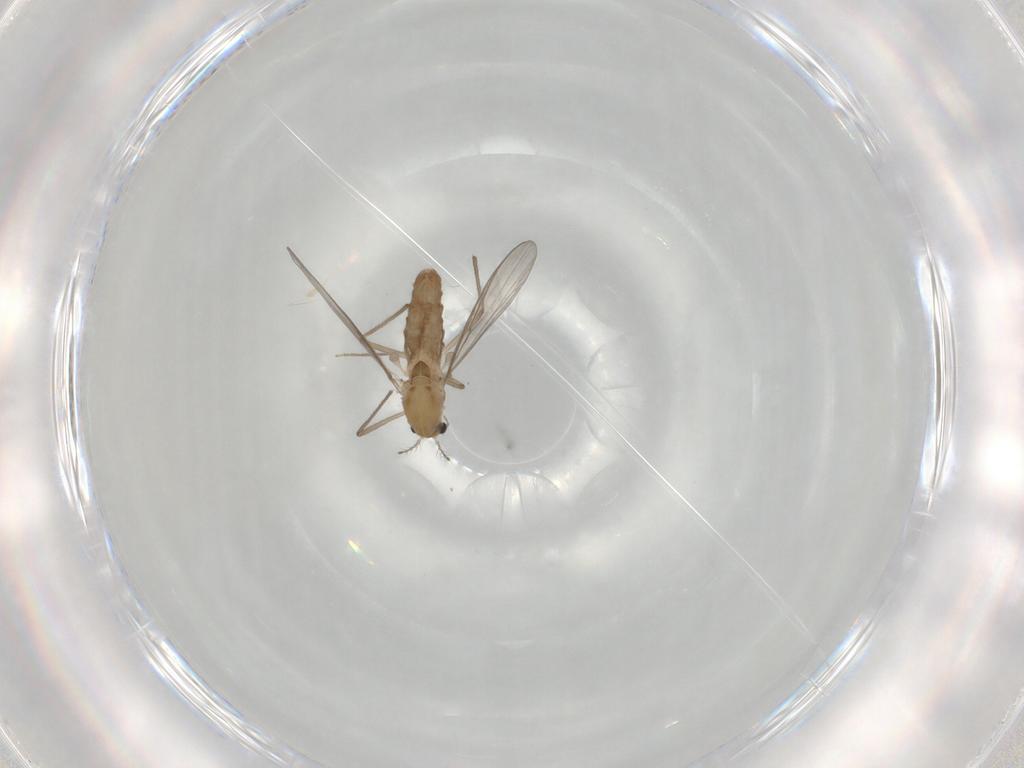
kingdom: Animalia
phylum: Arthropoda
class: Insecta
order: Diptera
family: Chironomidae
